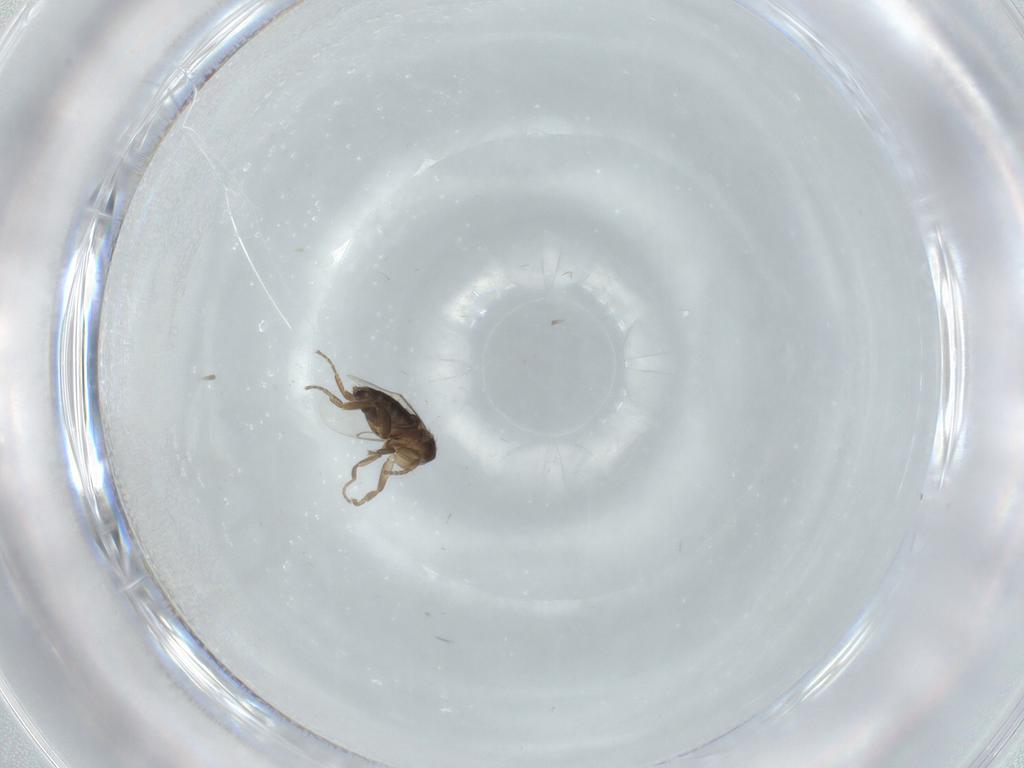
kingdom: Animalia
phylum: Arthropoda
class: Insecta
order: Diptera
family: Phoridae
